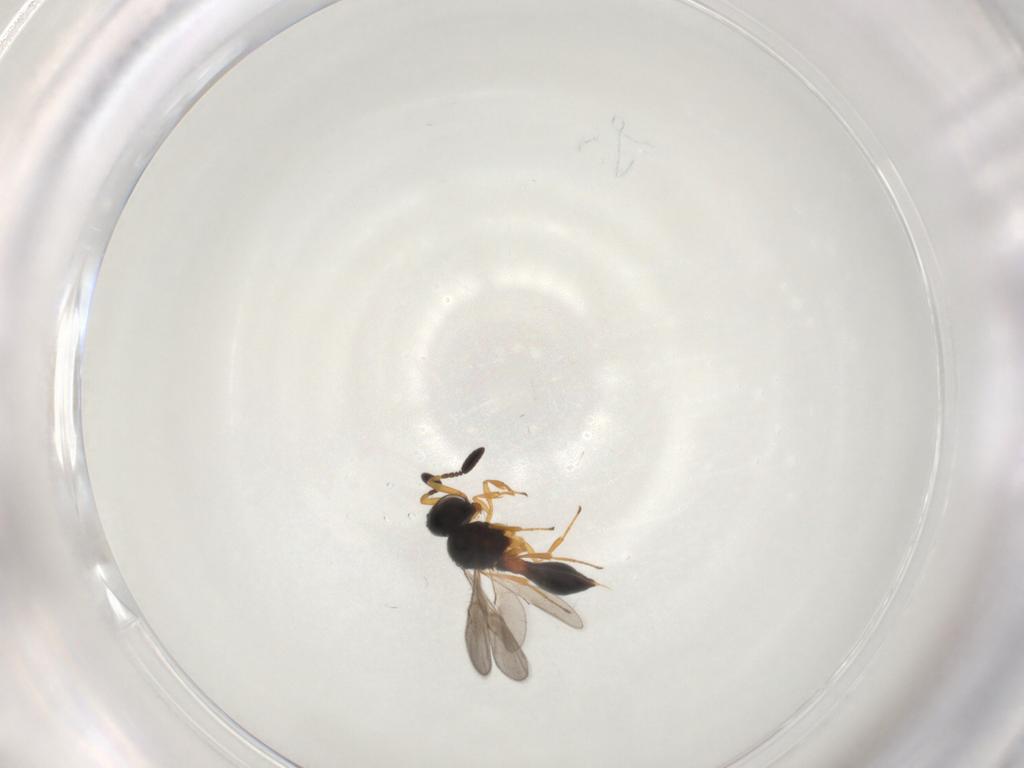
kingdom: Animalia
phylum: Arthropoda
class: Insecta
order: Hymenoptera
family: Scelionidae
